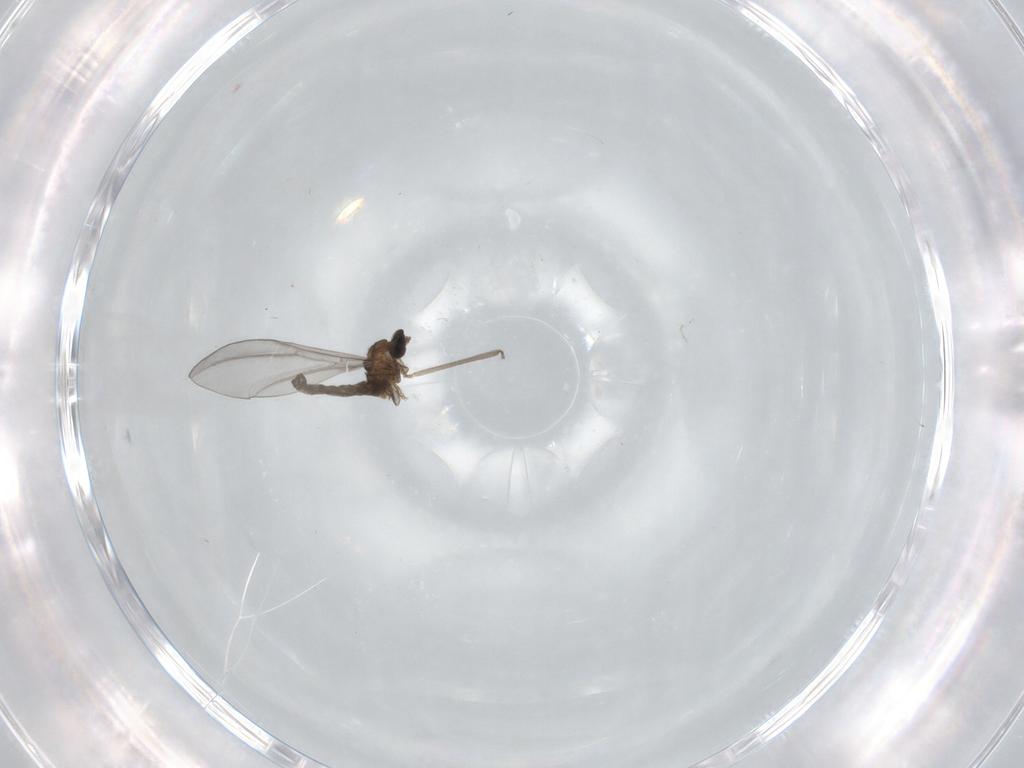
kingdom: Animalia
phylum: Arthropoda
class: Insecta
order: Diptera
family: Cecidomyiidae
